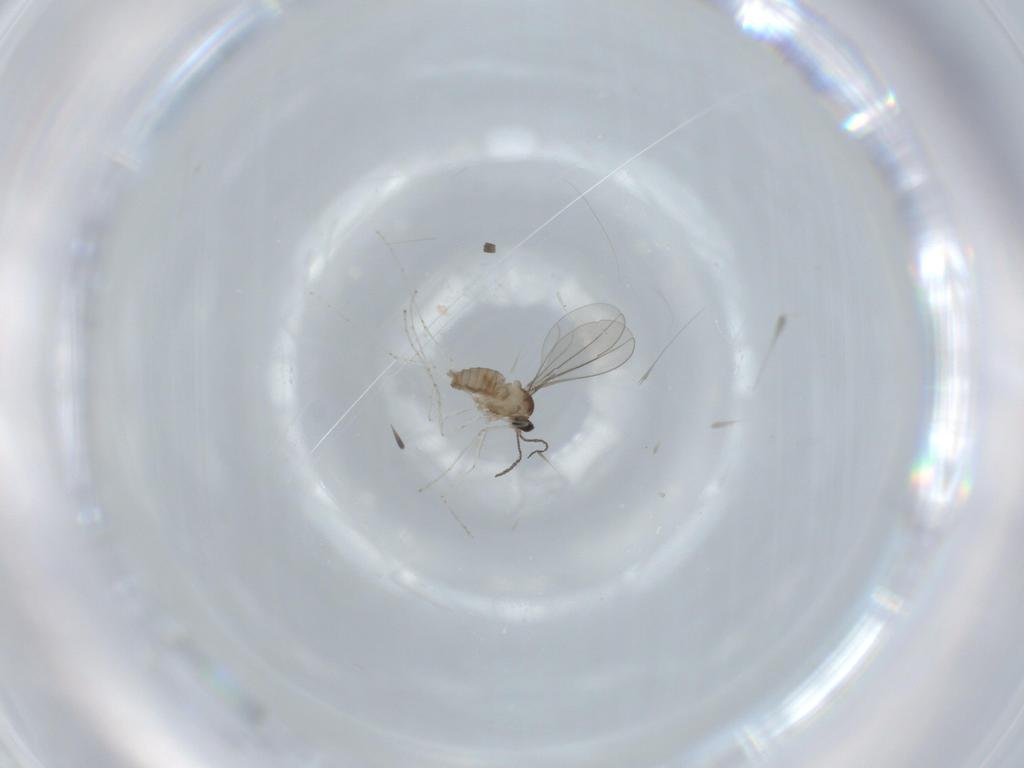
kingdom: Animalia
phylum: Arthropoda
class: Insecta
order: Diptera
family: Cecidomyiidae
